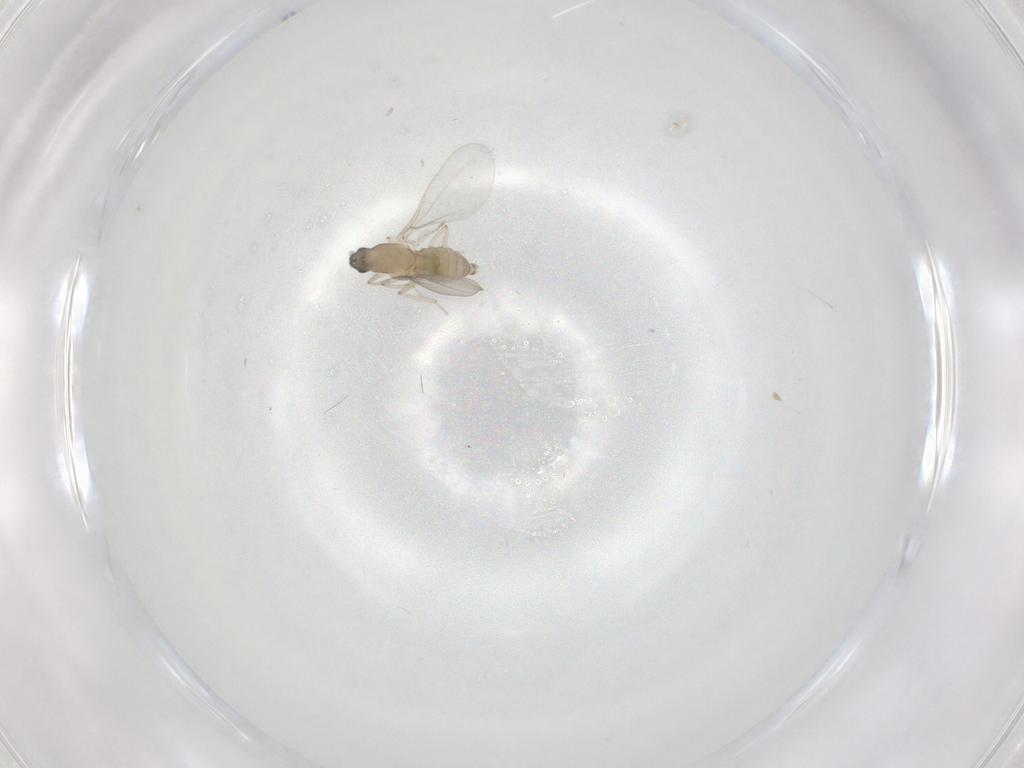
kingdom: Animalia
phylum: Arthropoda
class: Insecta
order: Diptera
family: Cecidomyiidae
